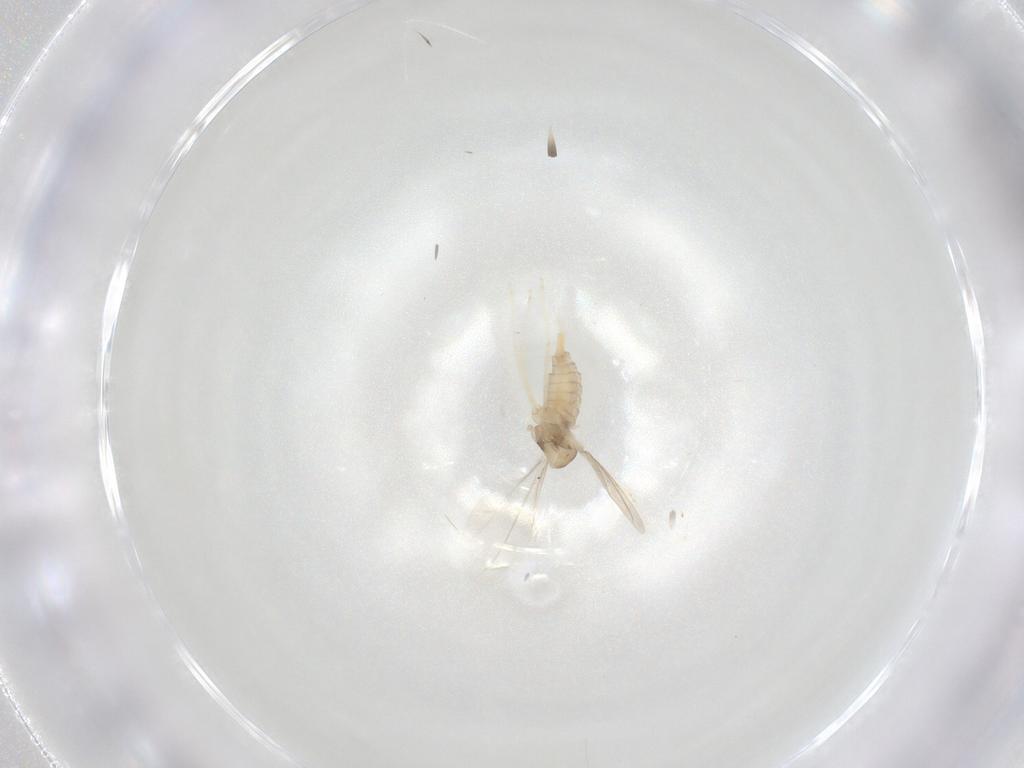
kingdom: Animalia
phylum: Arthropoda
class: Insecta
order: Diptera
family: Cecidomyiidae
